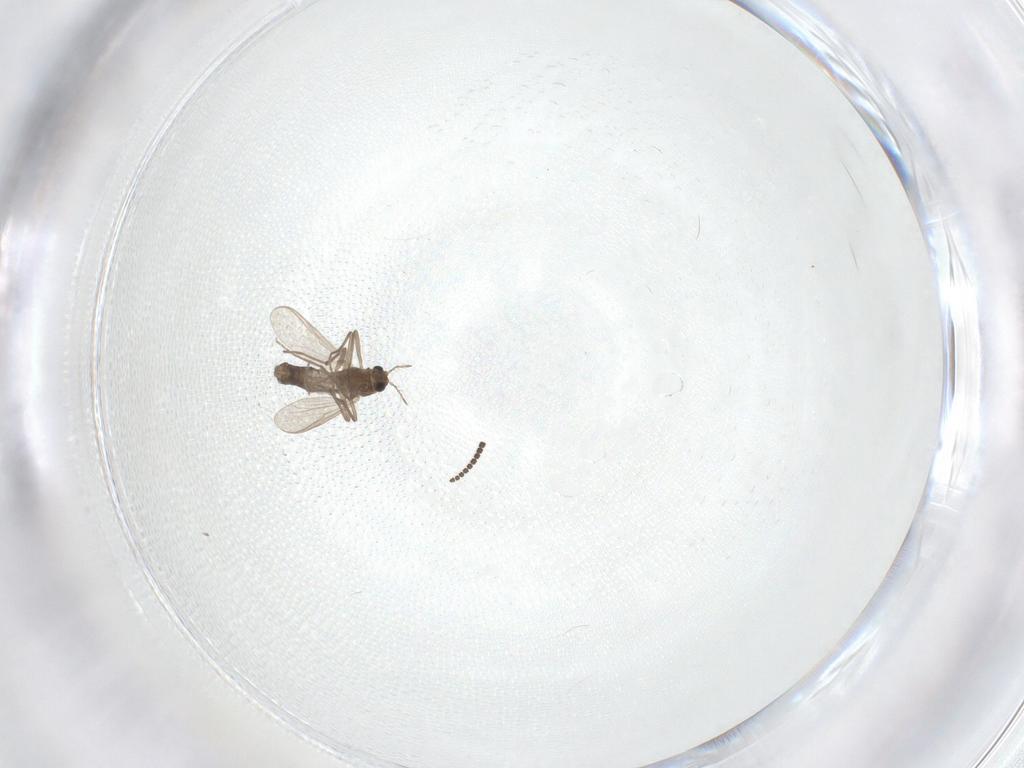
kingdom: Animalia
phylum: Arthropoda
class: Insecta
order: Diptera
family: Chironomidae
